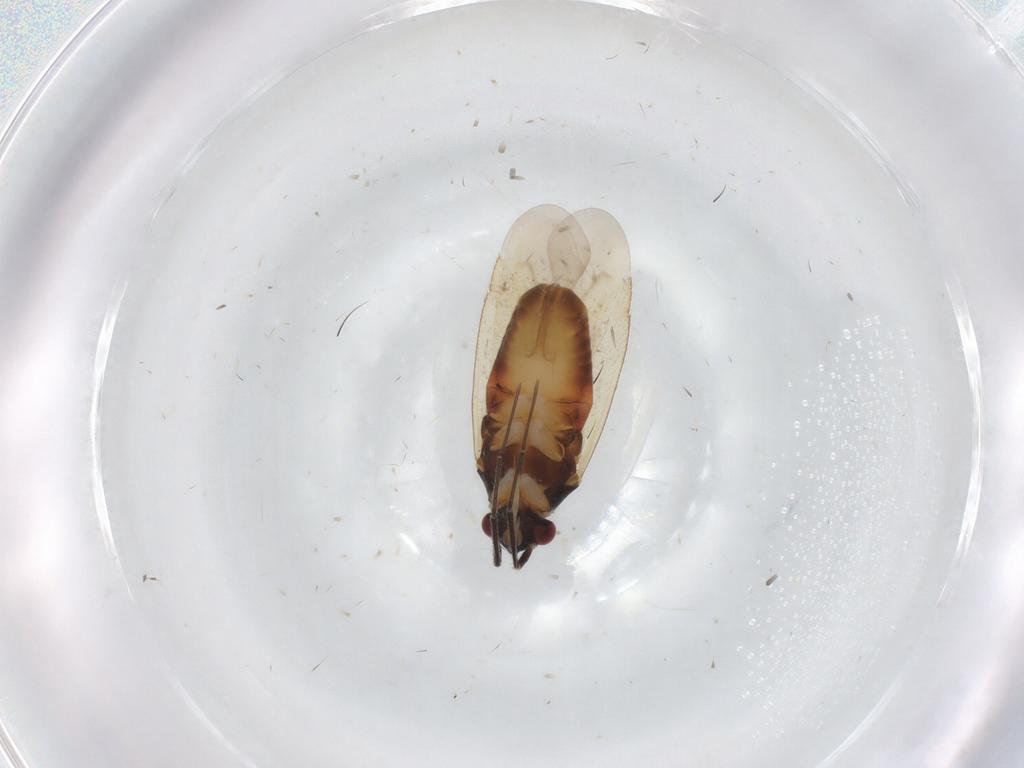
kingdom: Animalia
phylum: Arthropoda
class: Insecta
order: Hemiptera
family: Miridae
